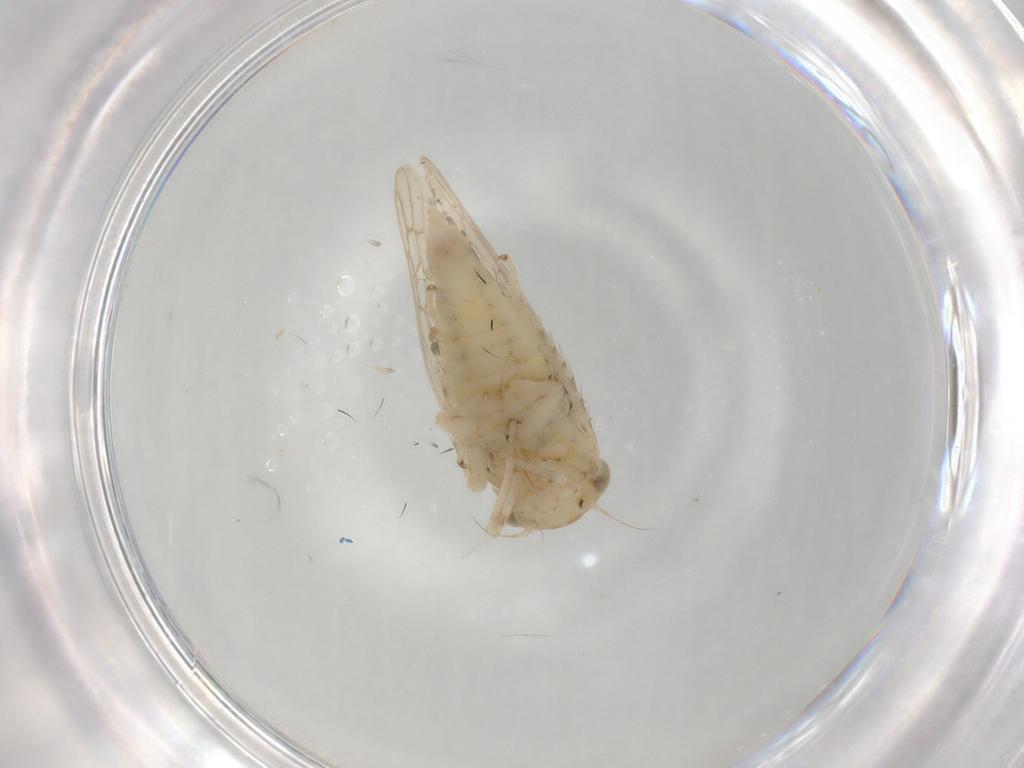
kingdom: Animalia
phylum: Arthropoda
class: Insecta
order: Hemiptera
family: Cicadellidae
